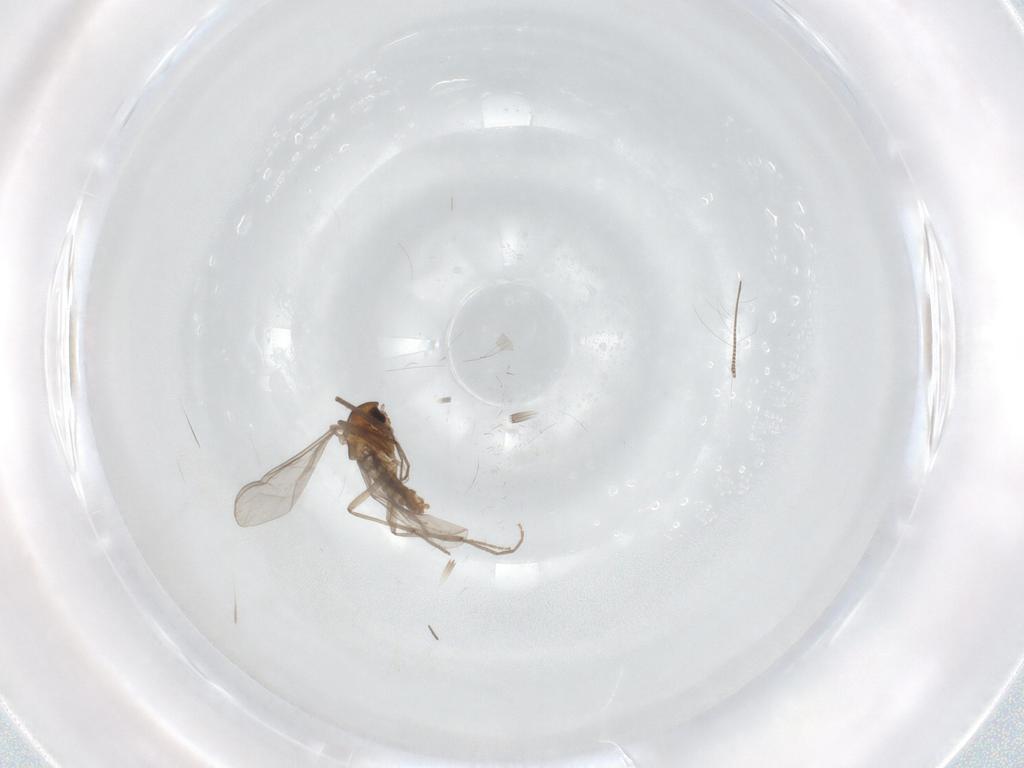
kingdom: Animalia
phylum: Arthropoda
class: Insecta
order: Diptera
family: Chironomidae
